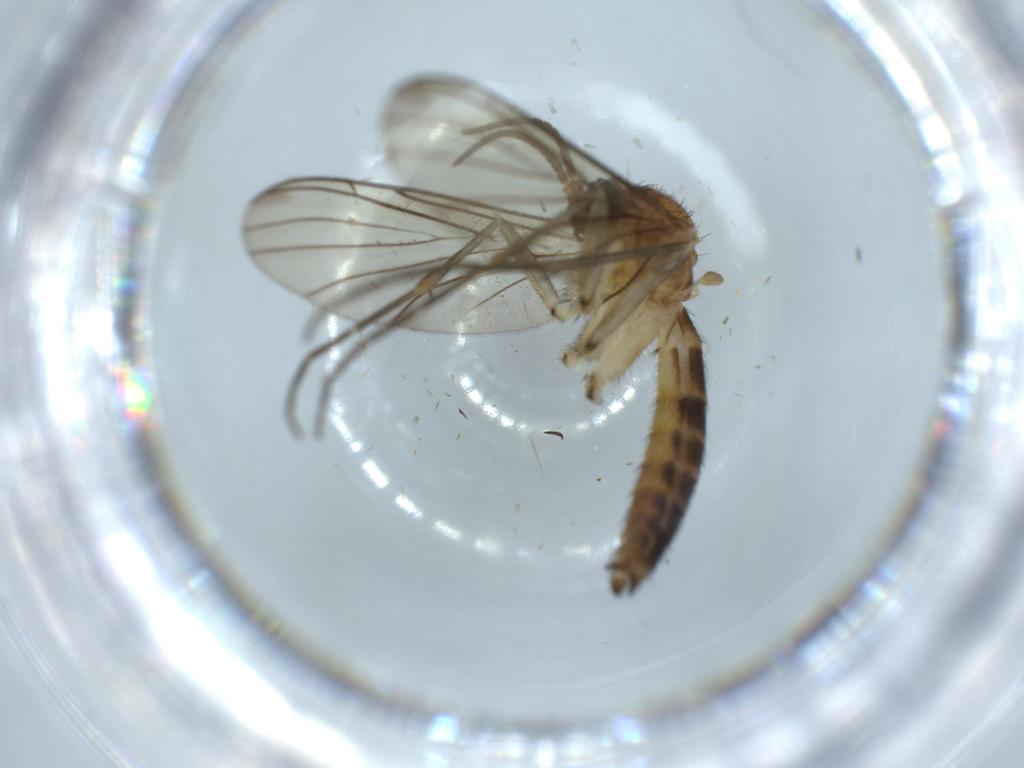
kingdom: Animalia
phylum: Arthropoda
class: Insecta
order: Diptera
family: Keroplatidae
